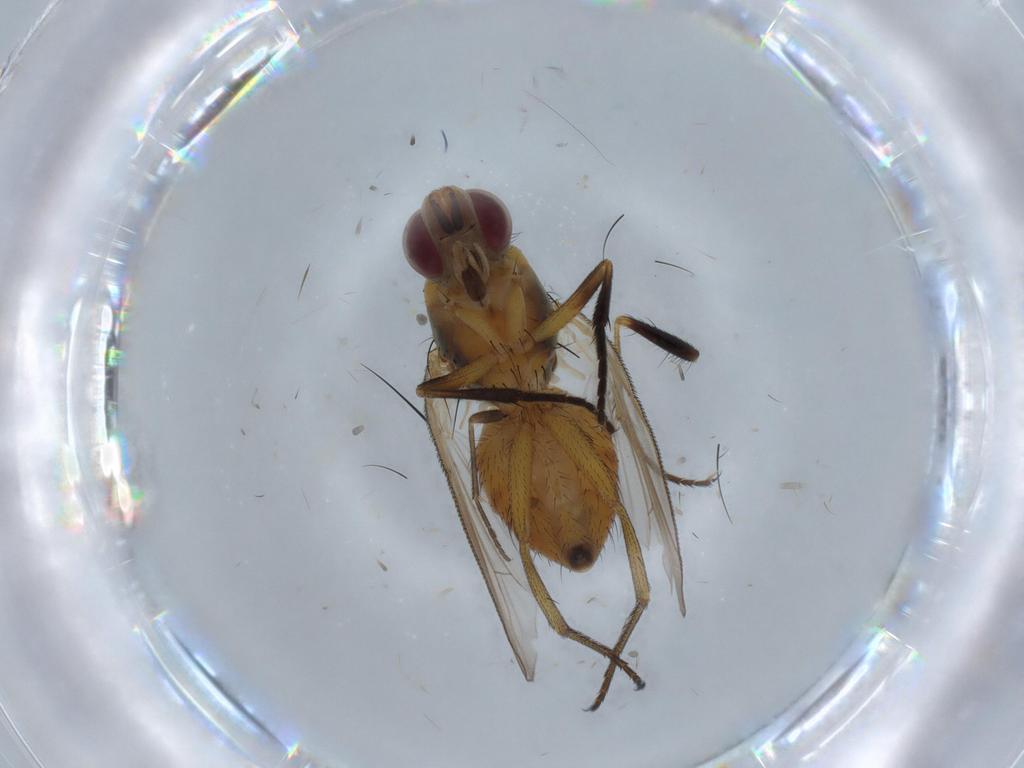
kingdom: Animalia
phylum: Arthropoda
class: Insecta
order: Diptera
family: Muscidae
